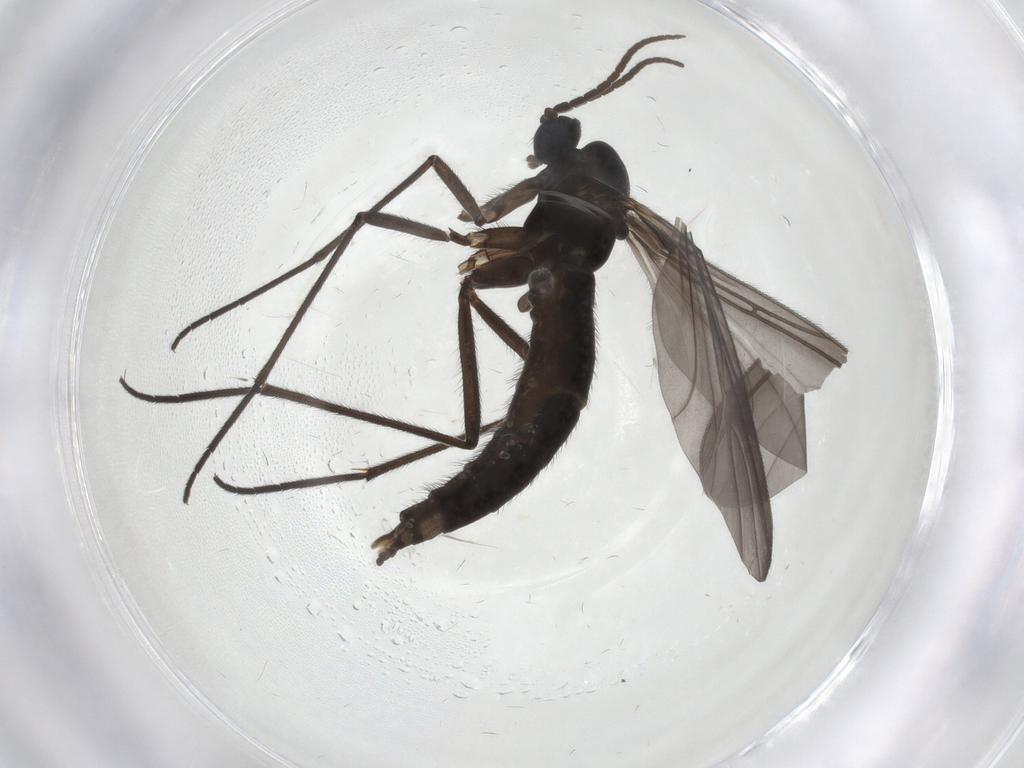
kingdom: Animalia
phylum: Arthropoda
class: Insecta
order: Diptera
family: Sciaridae
